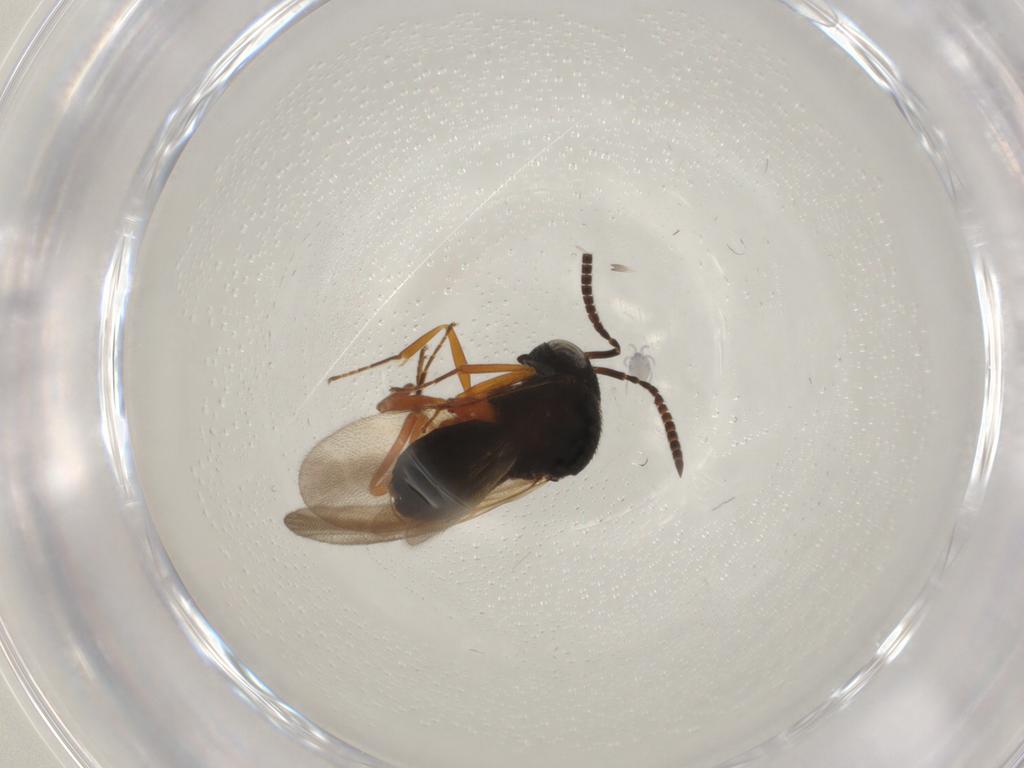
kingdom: Animalia
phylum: Arthropoda
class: Insecta
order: Hymenoptera
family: Scelionidae
